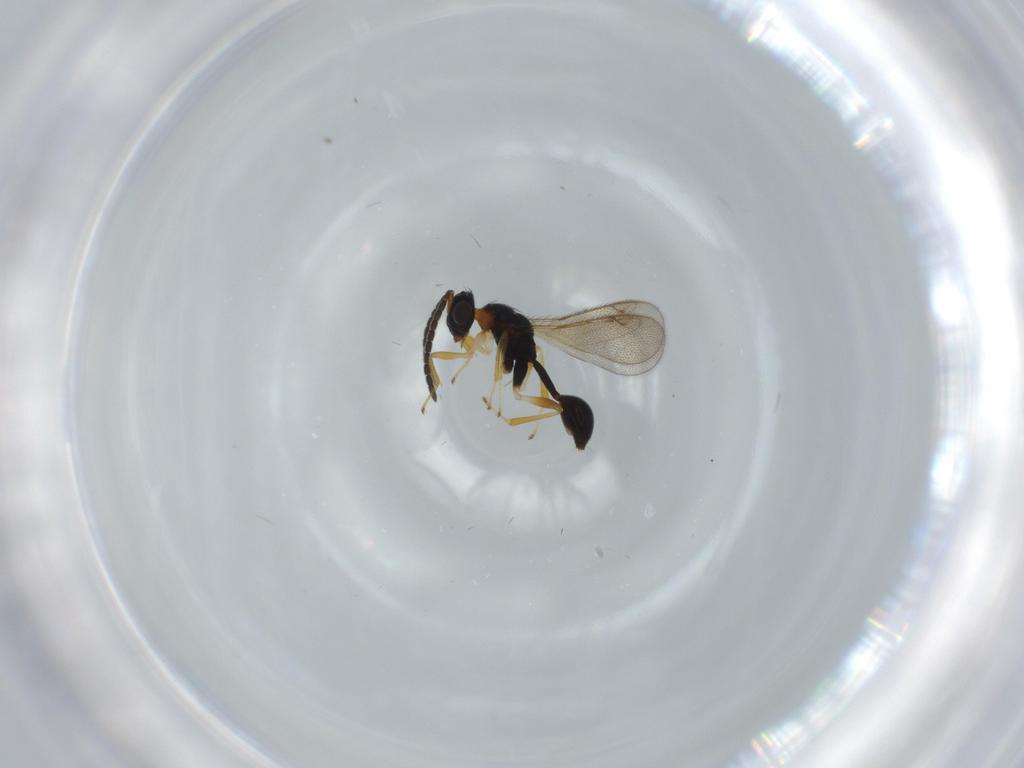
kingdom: Animalia
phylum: Arthropoda
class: Insecta
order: Hymenoptera
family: Diparidae
